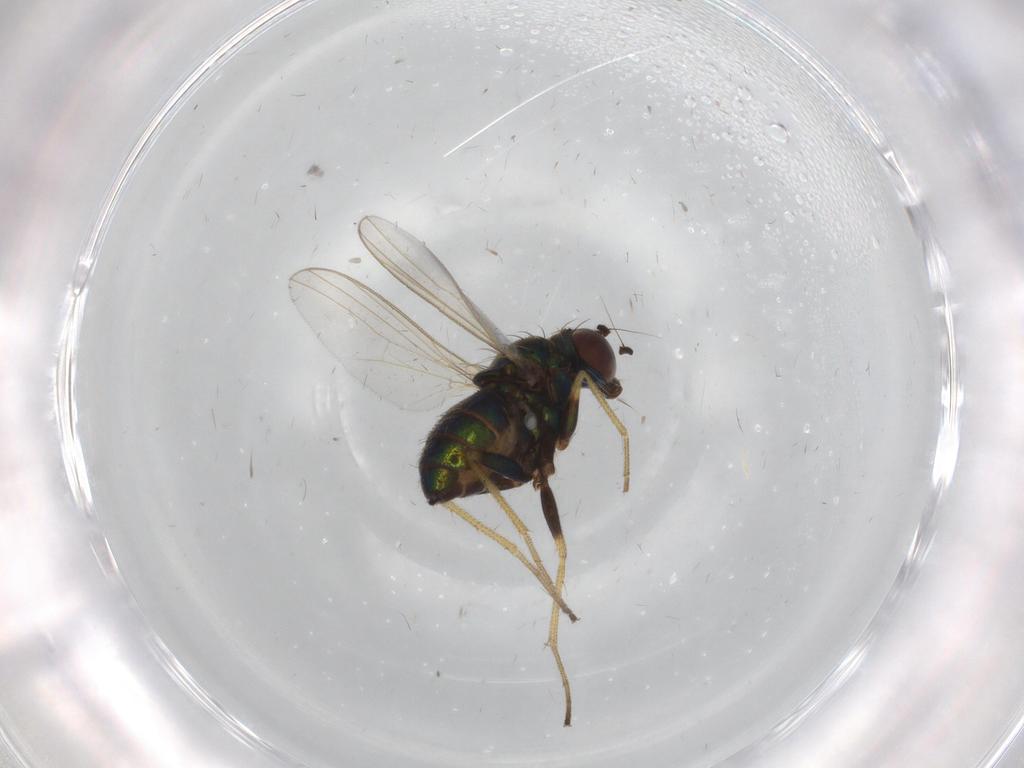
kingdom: Animalia
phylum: Arthropoda
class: Insecta
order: Diptera
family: Dolichopodidae
